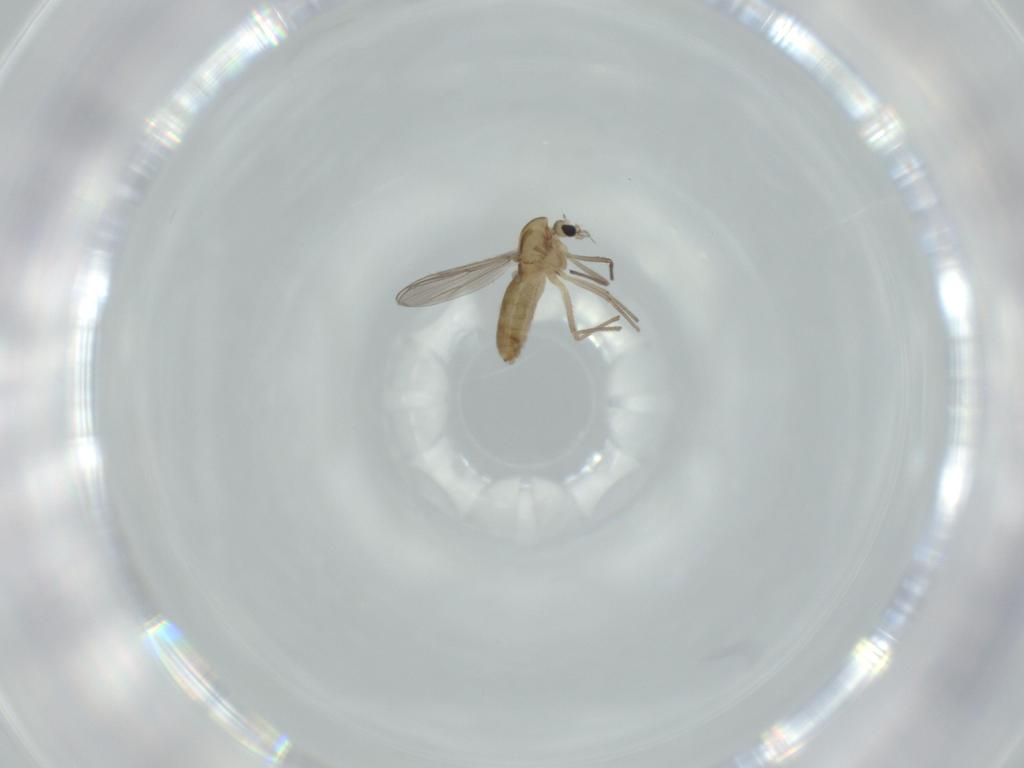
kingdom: Animalia
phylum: Arthropoda
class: Insecta
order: Diptera
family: Chironomidae
